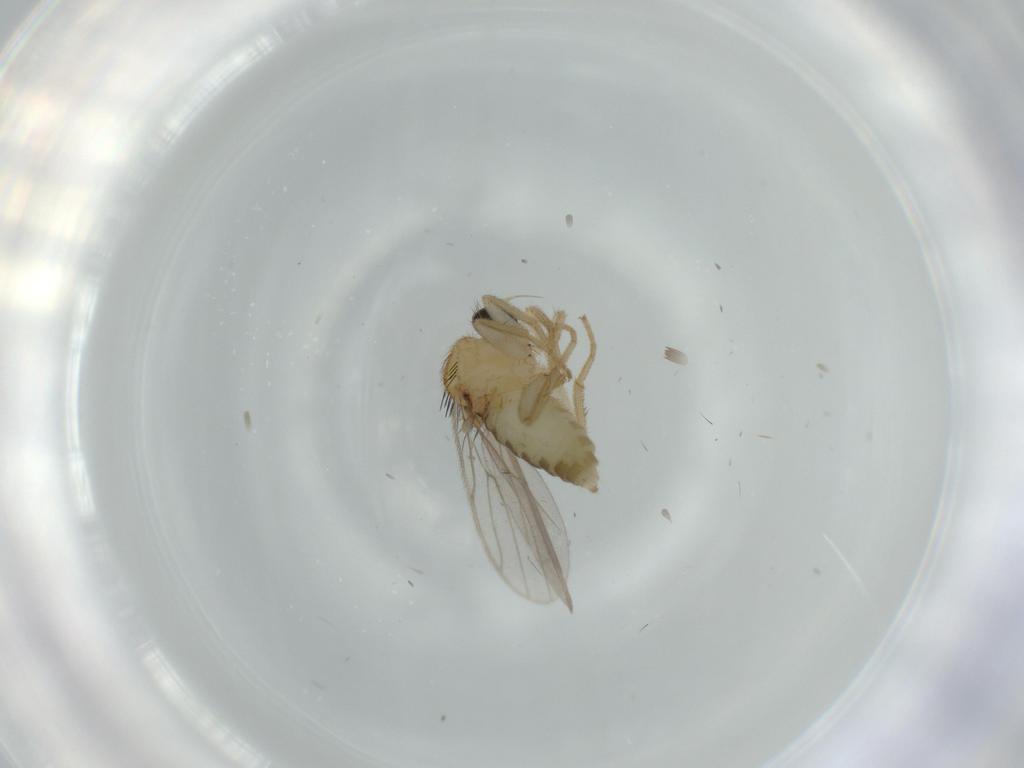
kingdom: Animalia
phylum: Arthropoda
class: Insecta
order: Diptera
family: Hybotidae
